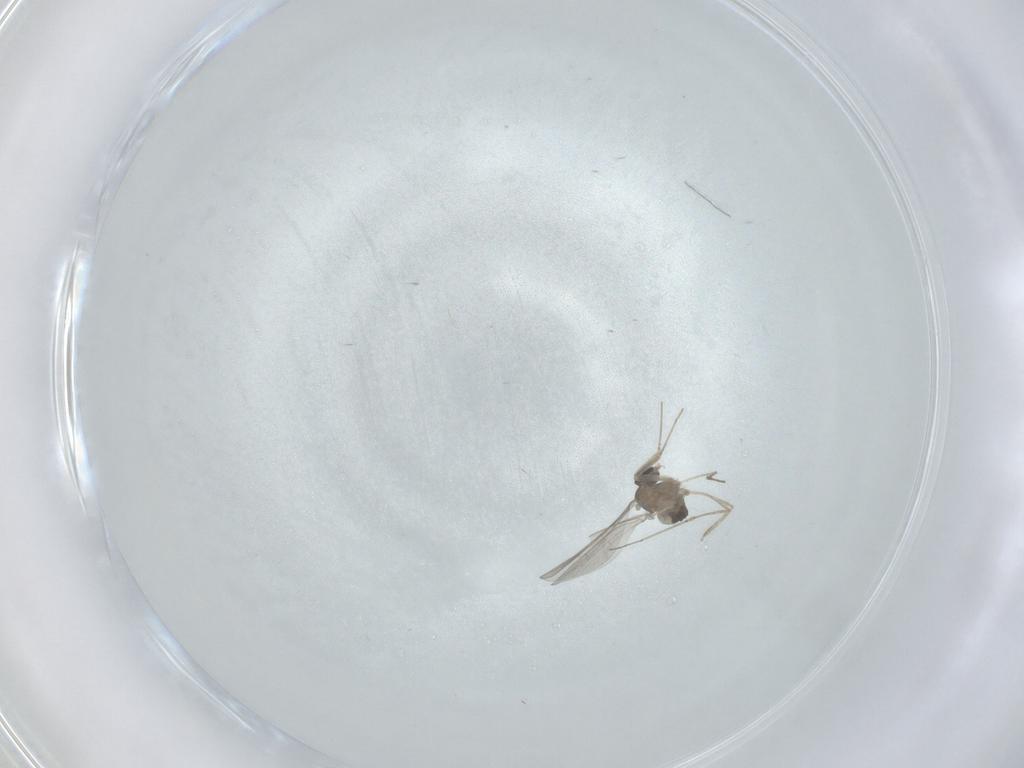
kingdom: Animalia
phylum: Arthropoda
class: Insecta
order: Diptera
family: Cecidomyiidae
